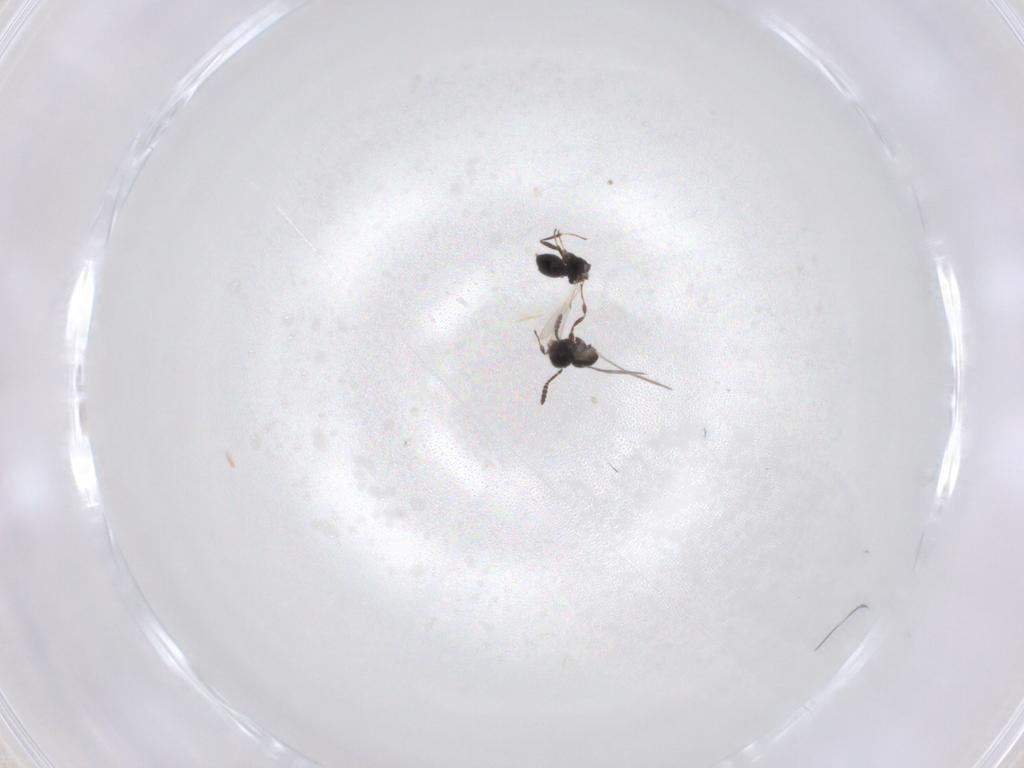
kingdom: Animalia
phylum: Arthropoda
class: Insecta
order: Hymenoptera
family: Scelionidae
